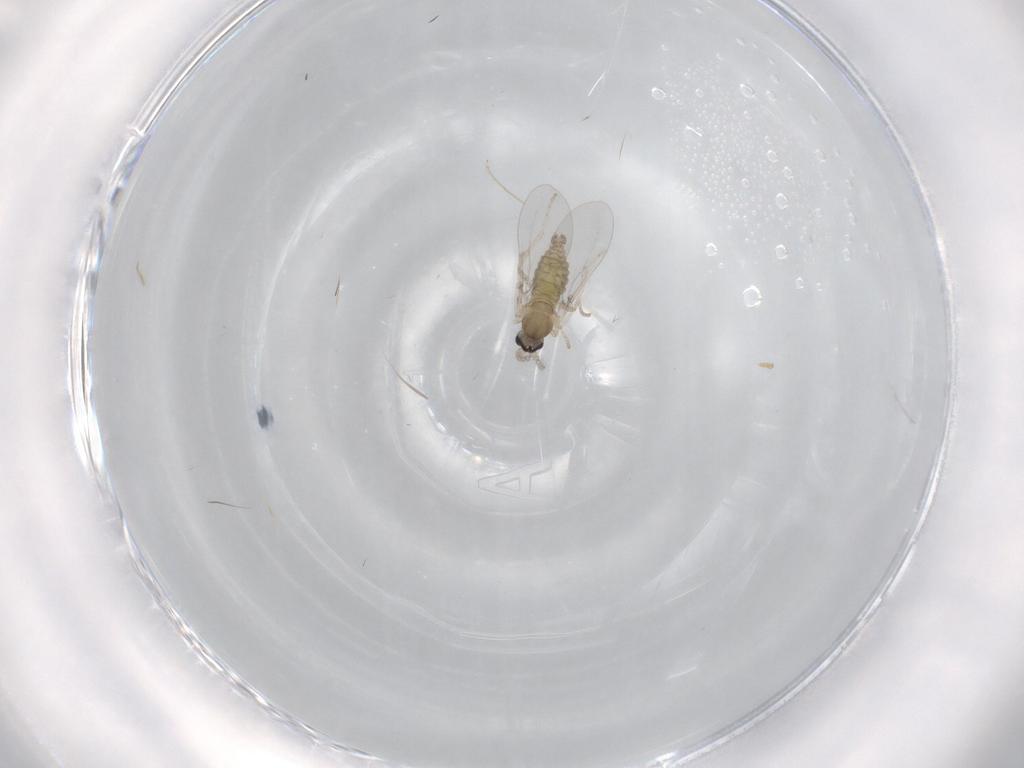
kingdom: Animalia
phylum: Arthropoda
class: Insecta
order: Diptera
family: Cecidomyiidae
